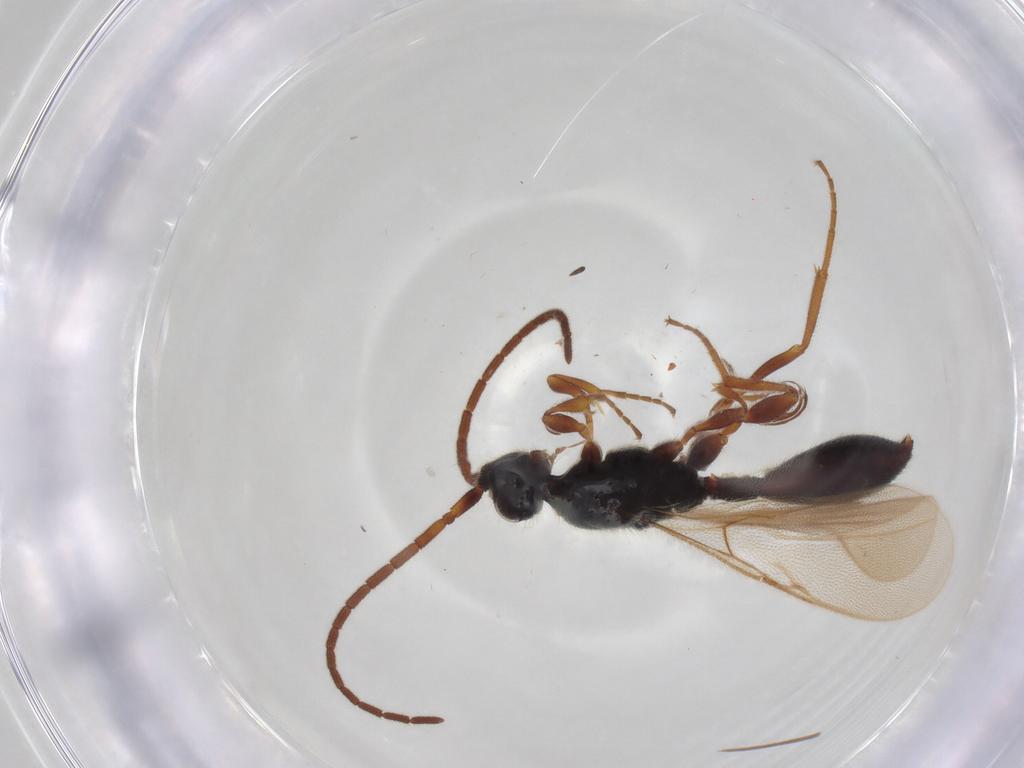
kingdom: Animalia
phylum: Arthropoda
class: Insecta
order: Hymenoptera
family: Diapriidae
